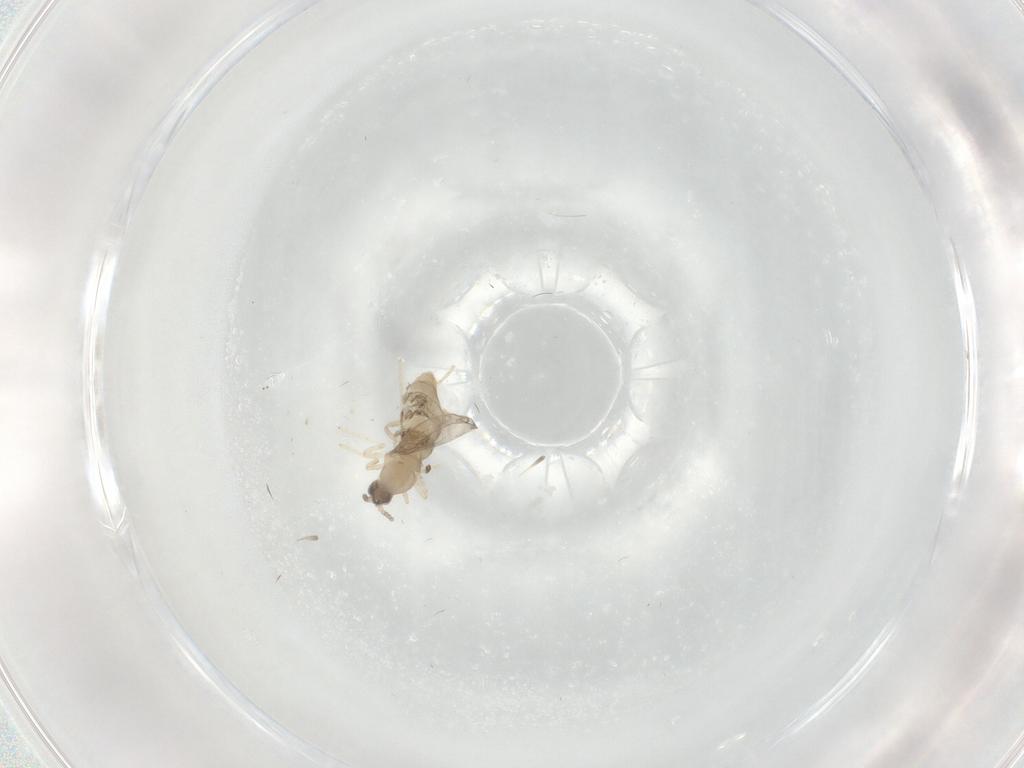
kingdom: Animalia
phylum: Arthropoda
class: Insecta
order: Diptera
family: Cecidomyiidae
